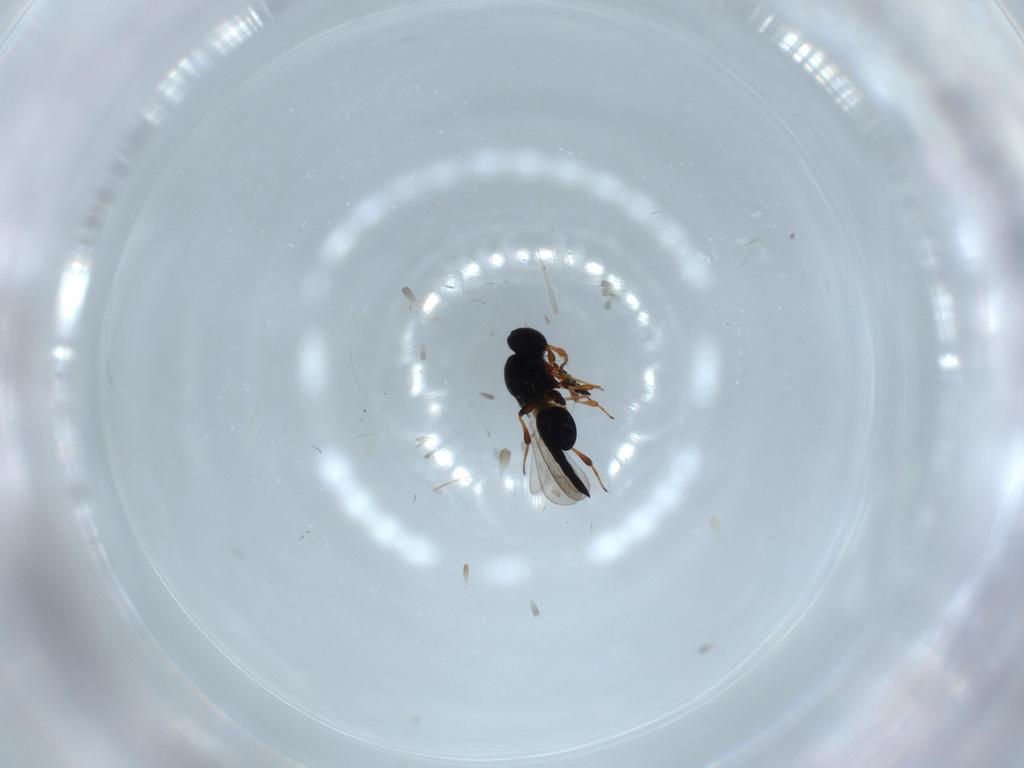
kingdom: Animalia
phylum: Arthropoda
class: Insecta
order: Hymenoptera
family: Platygastridae
